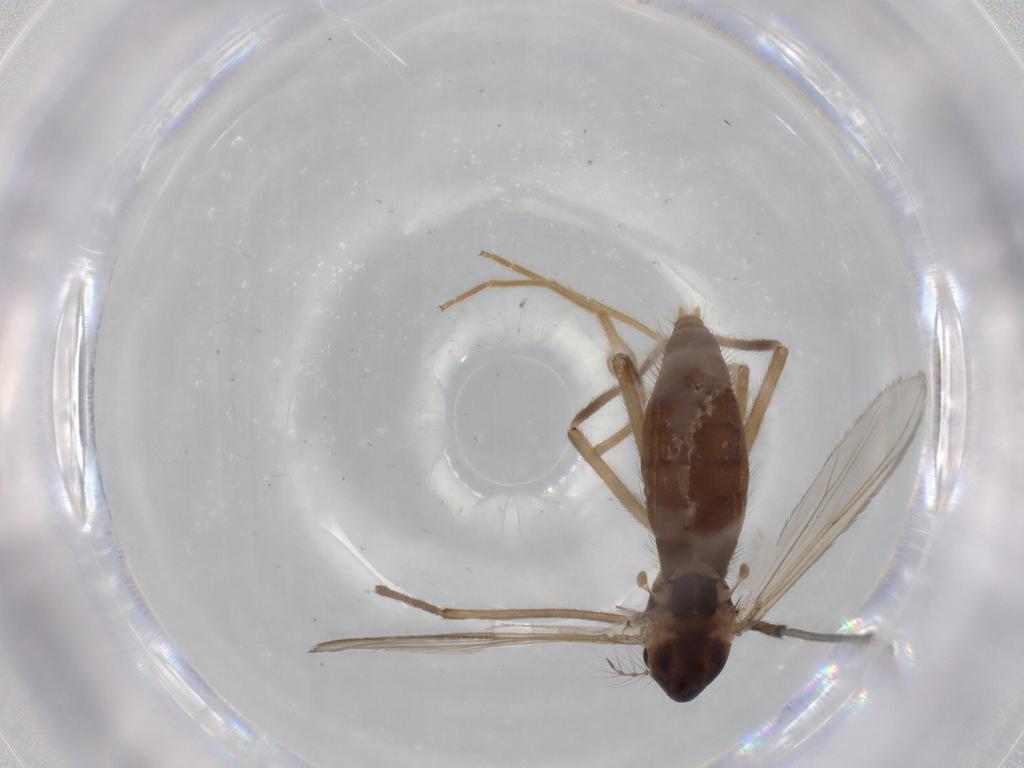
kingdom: Animalia
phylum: Arthropoda
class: Insecta
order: Diptera
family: Chironomidae
